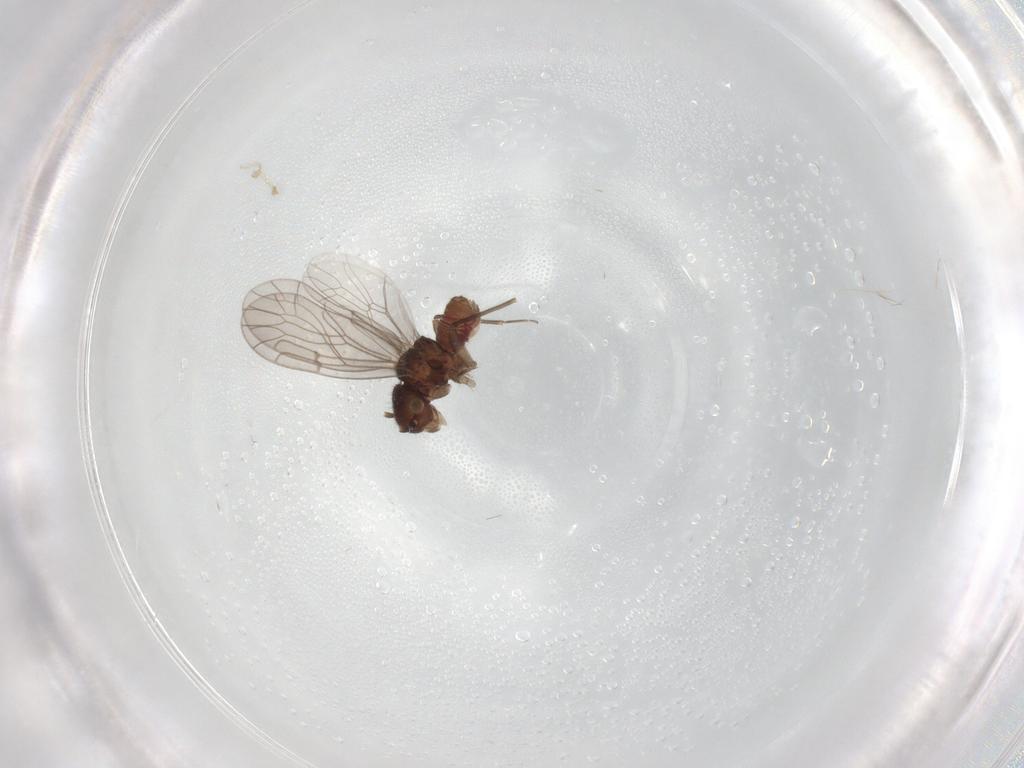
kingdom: Animalia
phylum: Arthropoda
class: Insecta
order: Psocodea
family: Ectopsocidae
